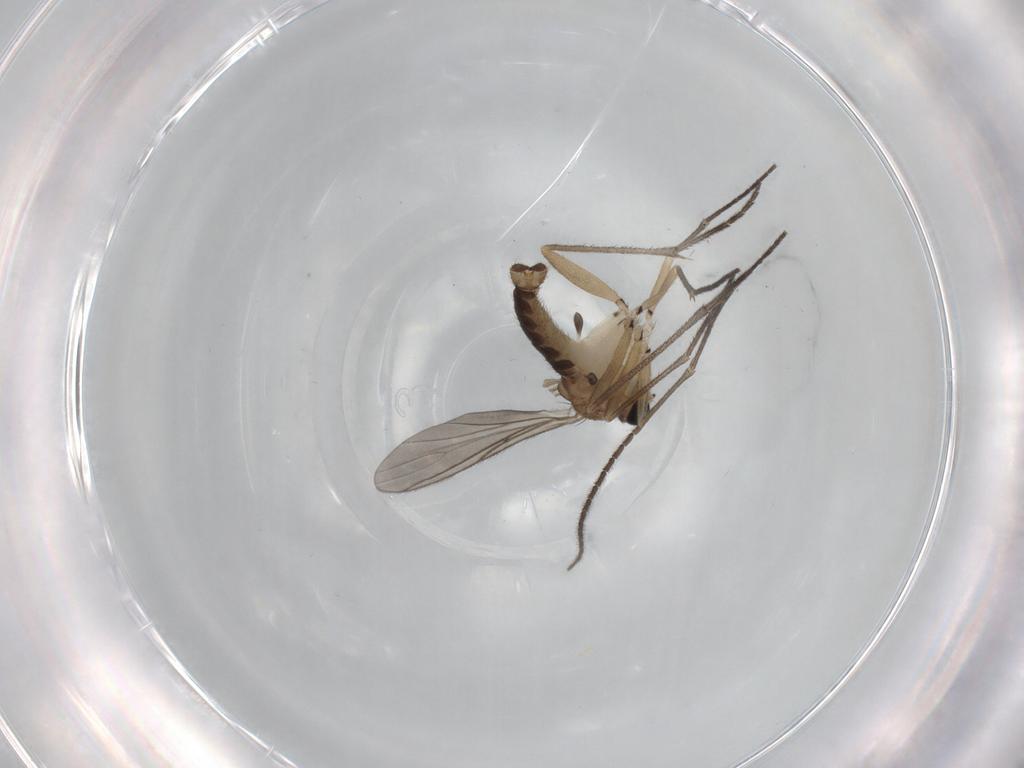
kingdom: Animalia
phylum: Arthropoda
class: Insecta
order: Diptera
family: Sciaridae
